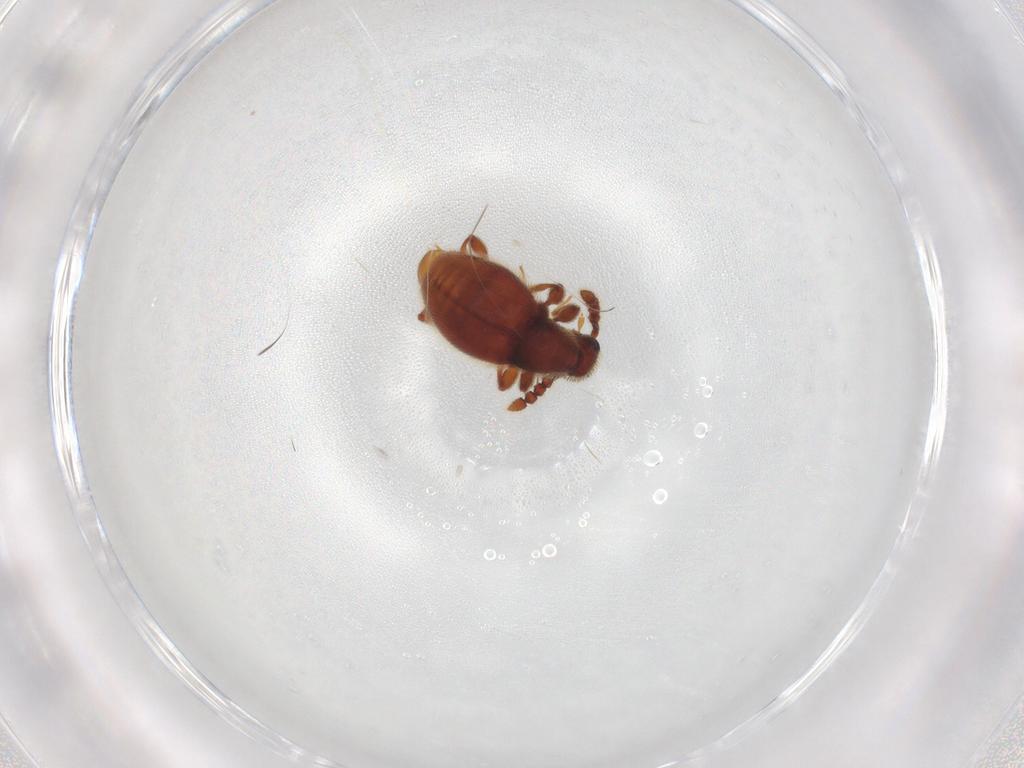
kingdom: Animalia
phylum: Arthropoda
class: Insecta
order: Coleoptera
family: Staphylinidae
